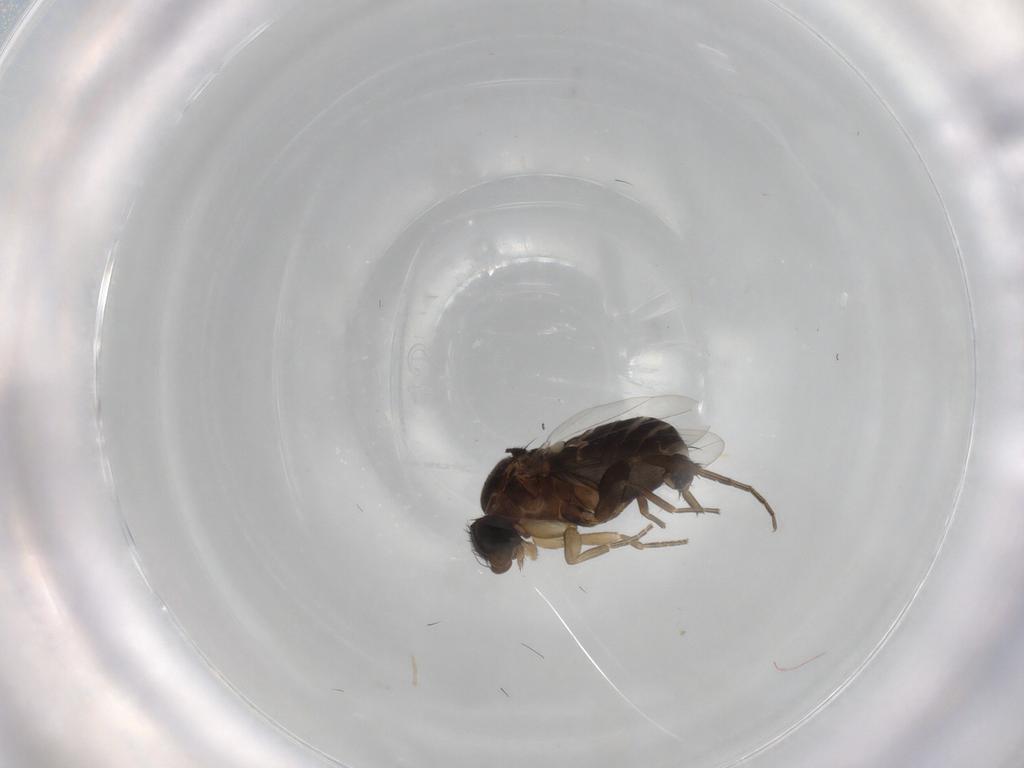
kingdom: Animalia
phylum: Arthropoda
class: Insecta
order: Diptera
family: Phoridae
